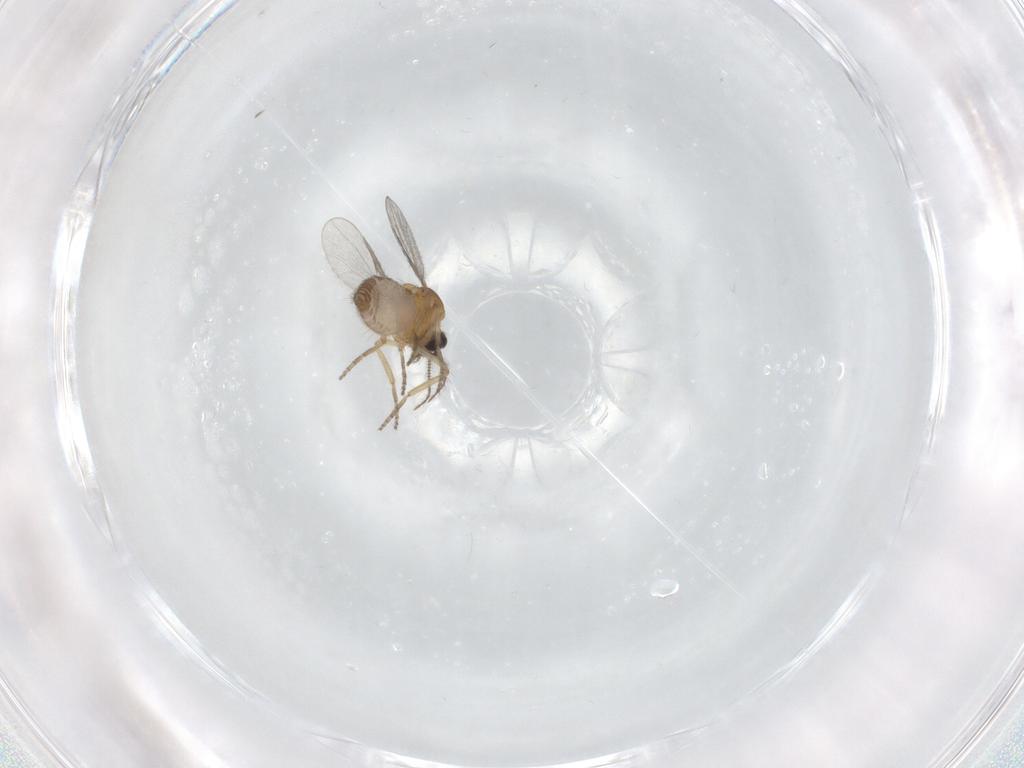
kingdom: Animalia
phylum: Arthropoda
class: Insecta
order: Diptera
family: Ceratopogonidae
